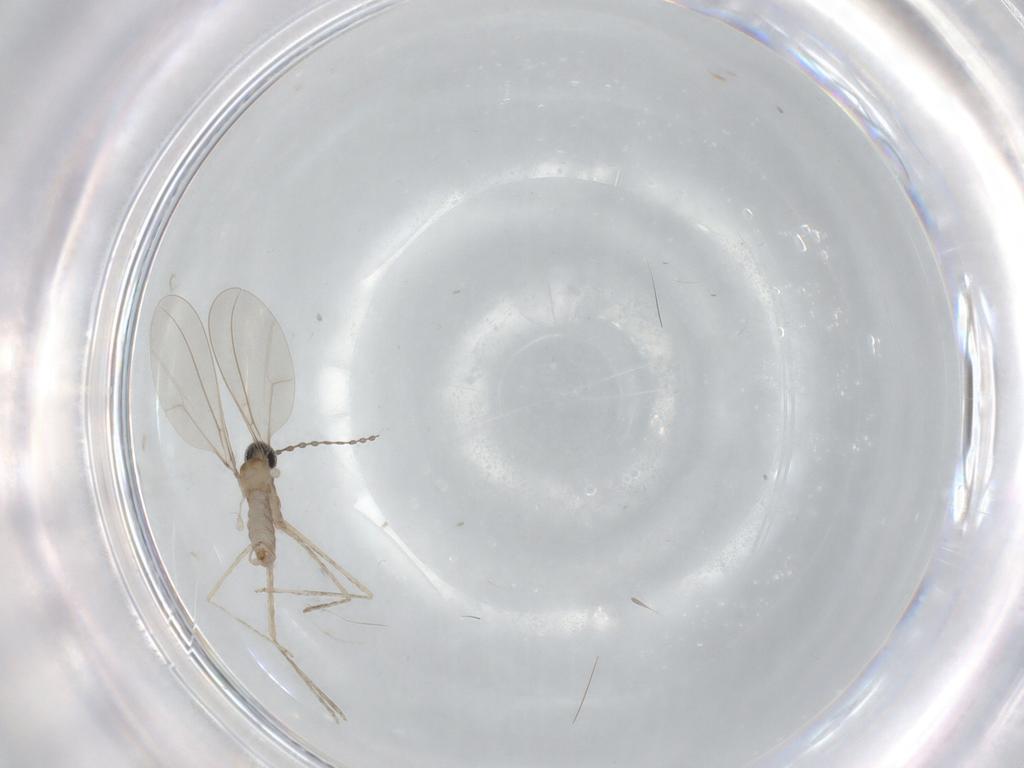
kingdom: Animalia
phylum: Arthropoda
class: Insecta
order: Diptera
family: Cecidomyiidae
